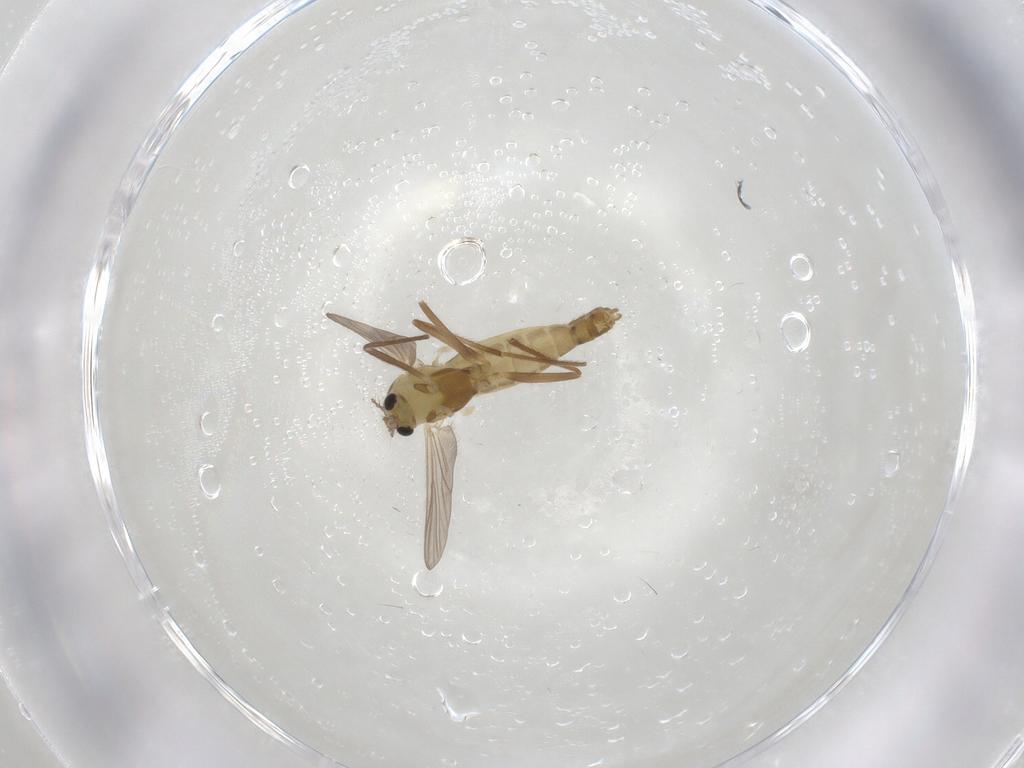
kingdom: Animalia
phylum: Arthropoda
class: Insecta
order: Diptera
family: Chironomidae
